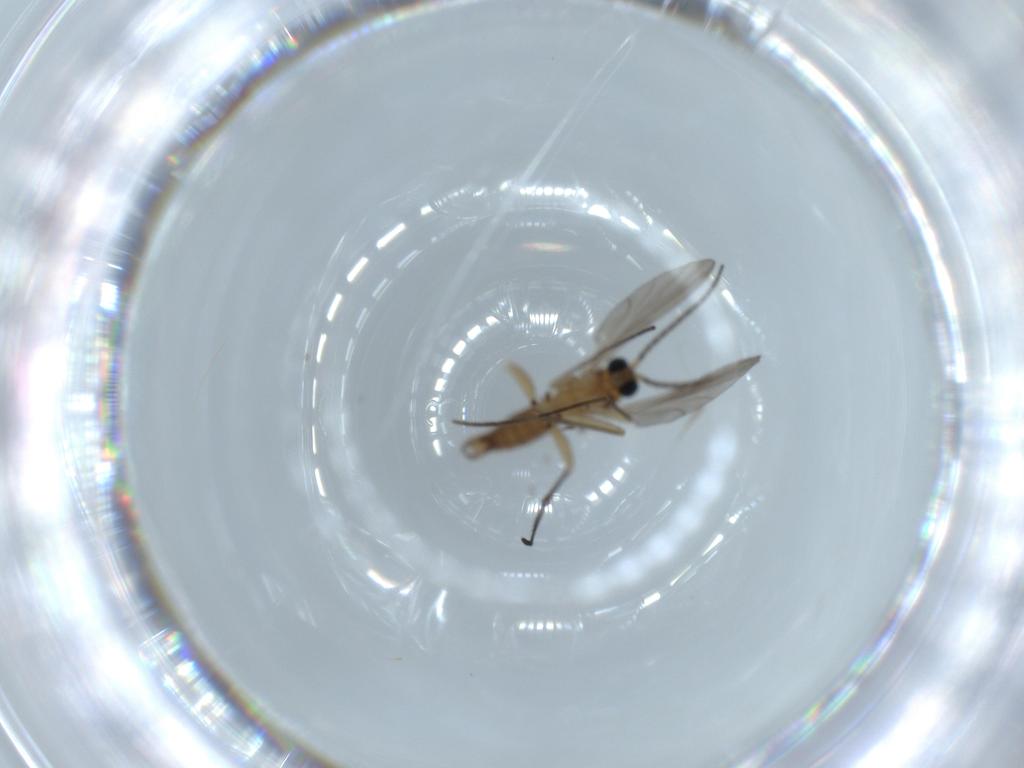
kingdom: Animalia
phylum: Arthropoda
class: Insecta
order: Diptera
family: Sciaridae
